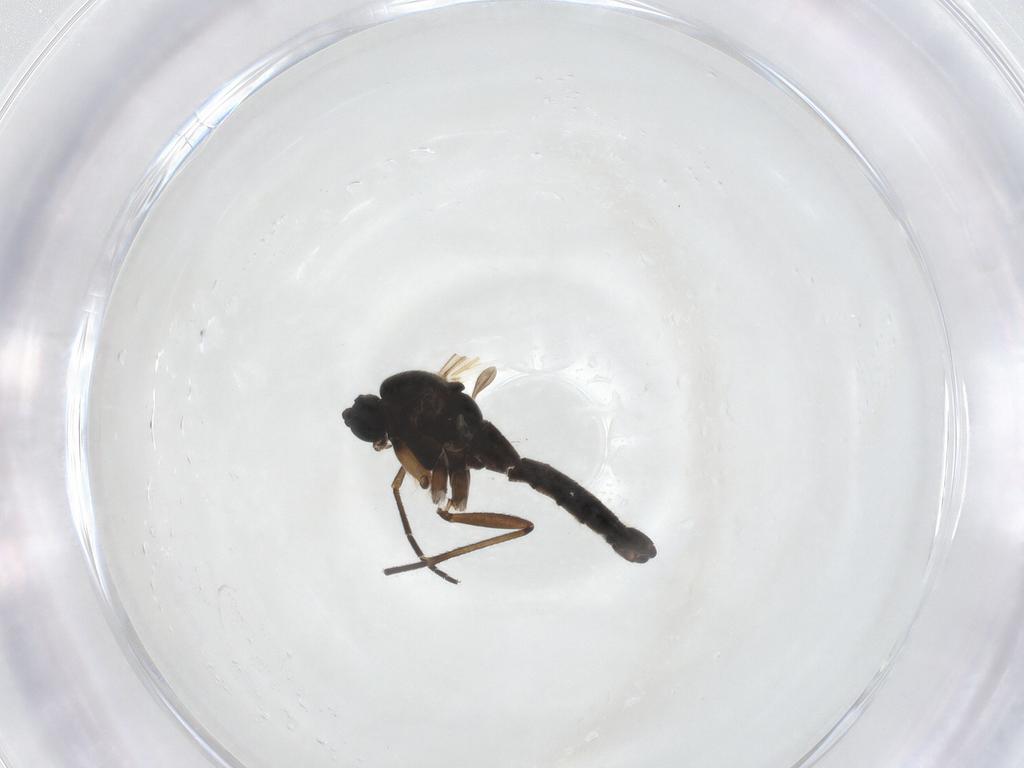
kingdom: Animalia
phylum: Arthropoda
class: Insecta
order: Diptera
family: Sciaridae
